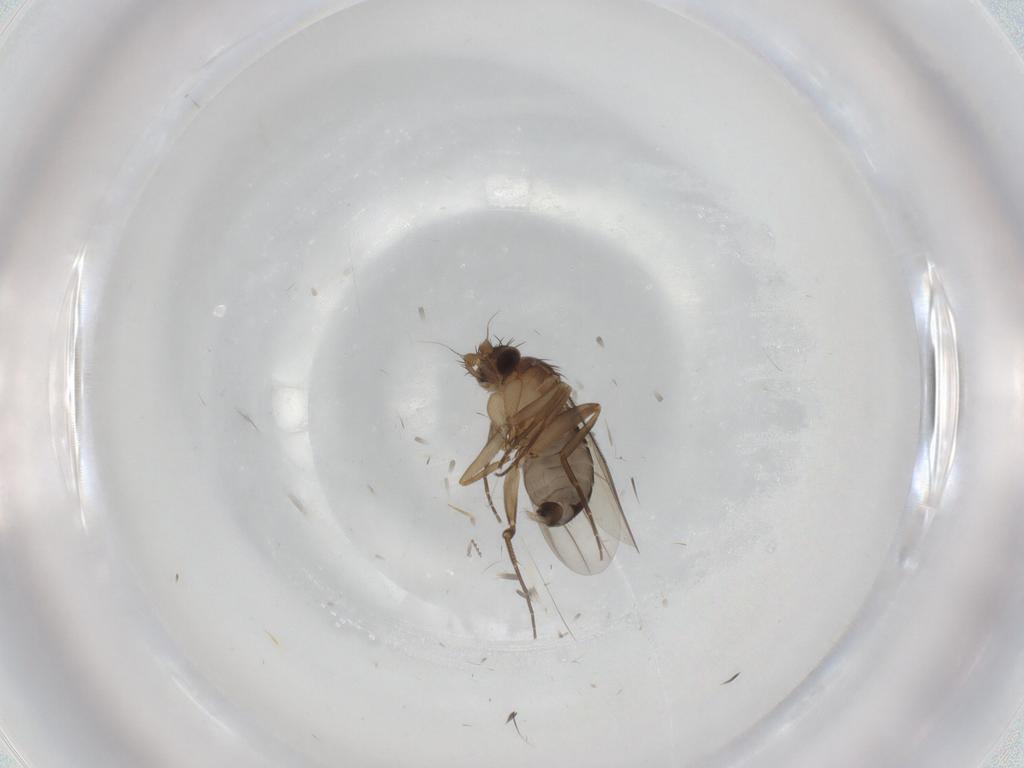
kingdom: Animalia
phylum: Arthropoda
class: Insecta
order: Diptera
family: Phoridae
